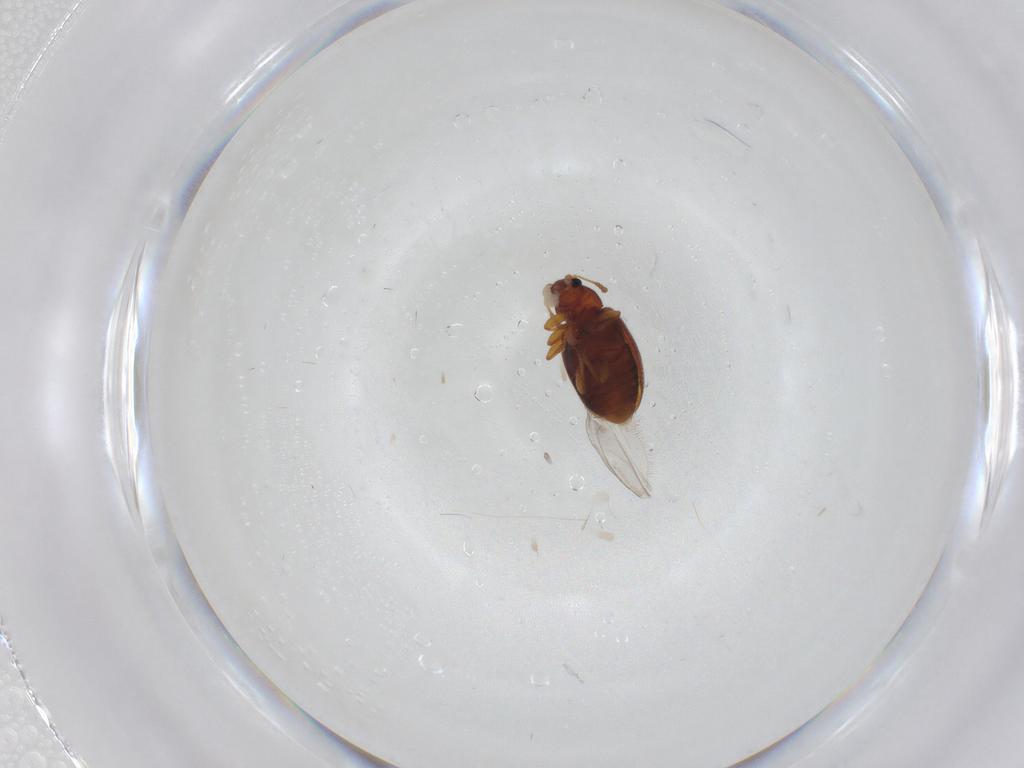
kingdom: Animalia
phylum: Arthropoda
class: Insecta
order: Coleoptera
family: Latridiidae
